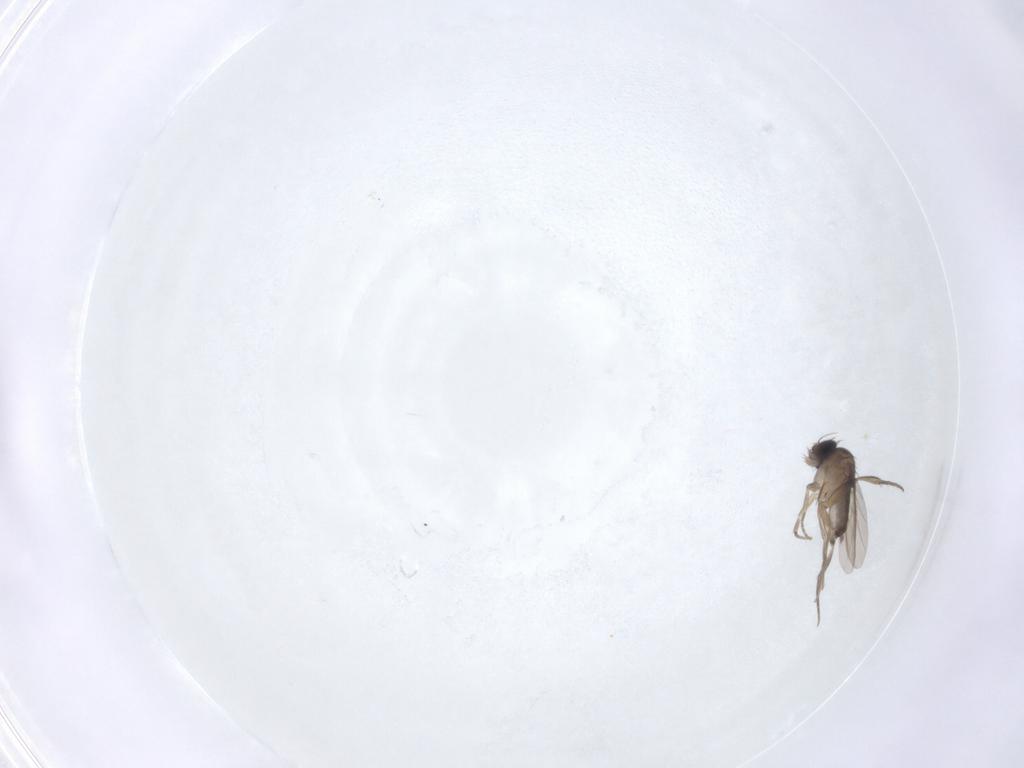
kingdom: Animalia
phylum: Arthropoda
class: Insecta
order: Diptera
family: Phoridae
